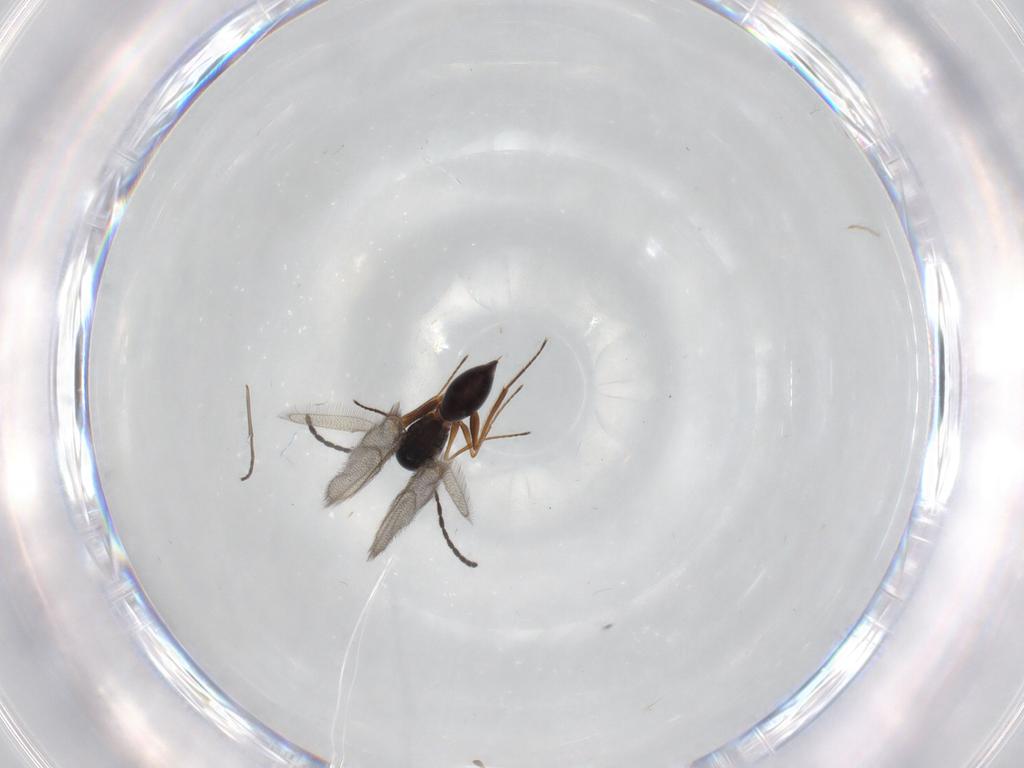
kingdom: Animalia
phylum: Arthropoda
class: Insecta
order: Hymenoptera
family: Figitidae
